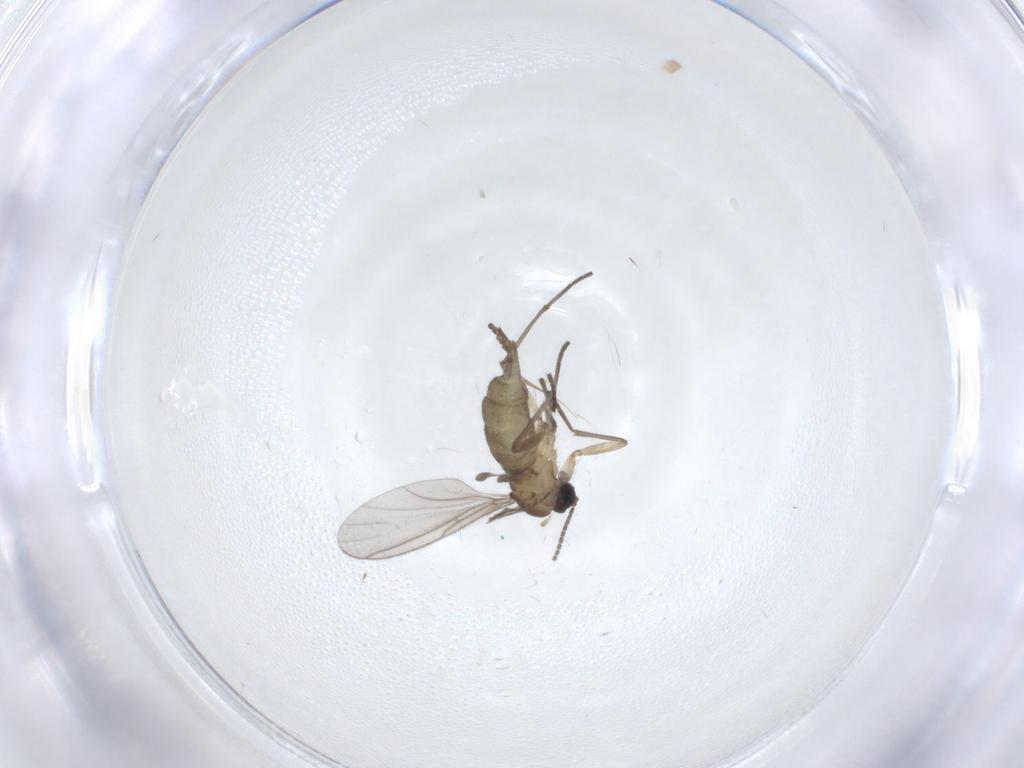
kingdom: Animalia
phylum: Arthropoda
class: Insecta
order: Diptera
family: Sciaridae
